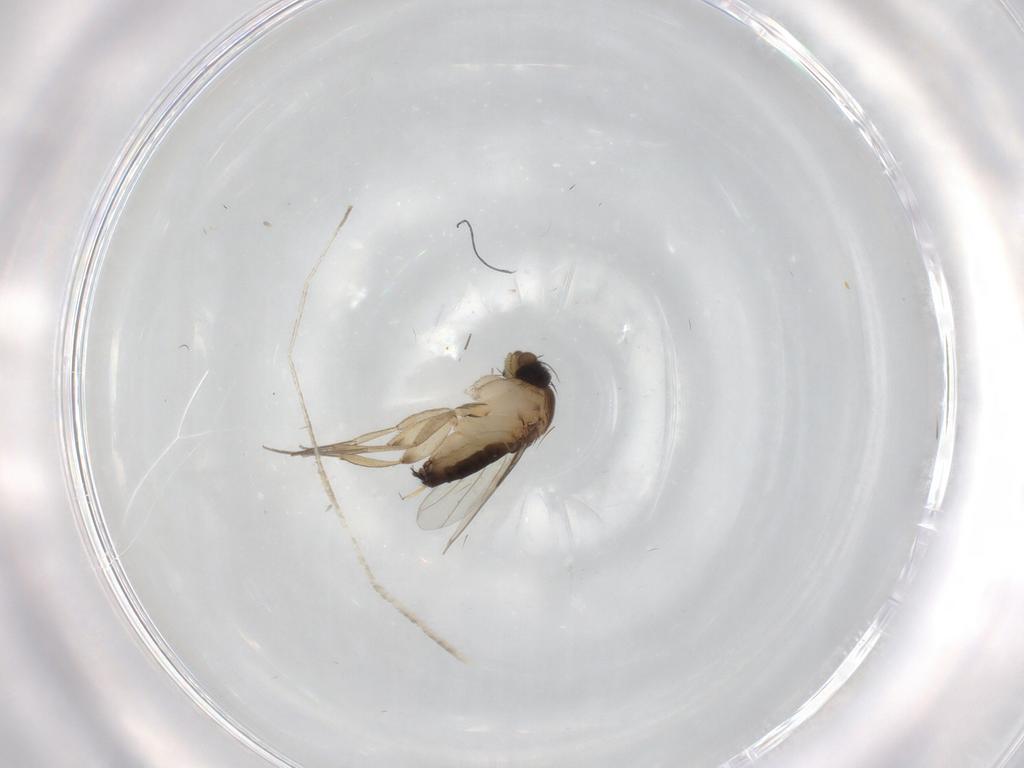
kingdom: Animalia
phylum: Arthropoda
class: Insecta
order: Diptera
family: Phoridae
